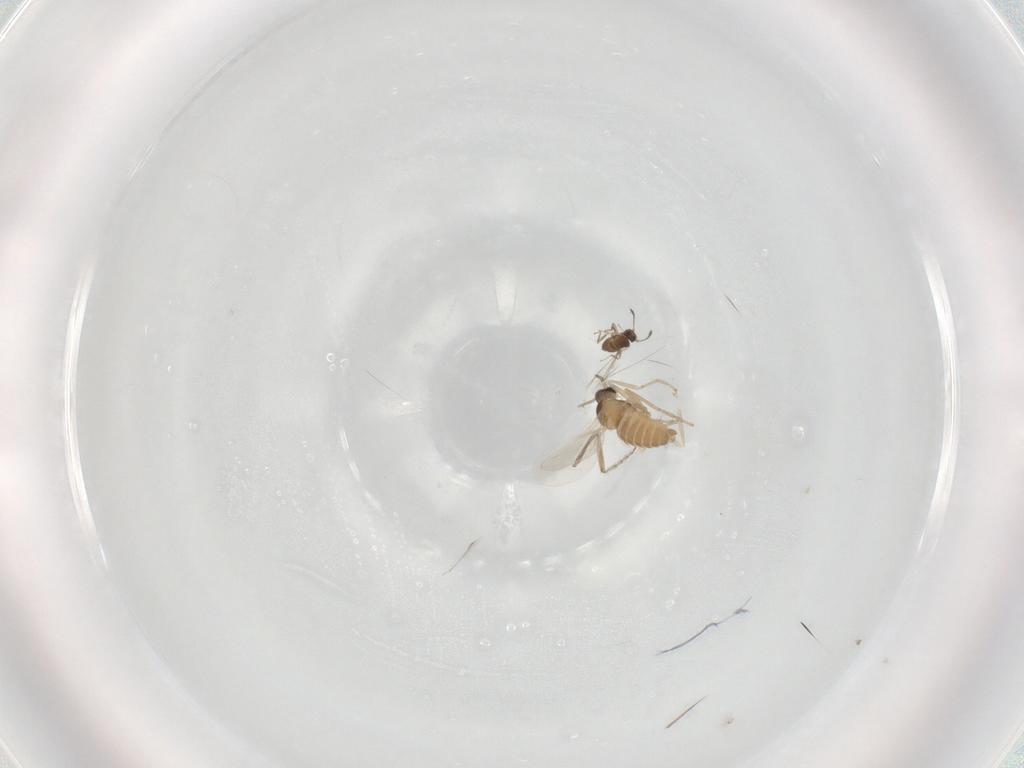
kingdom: Animalia
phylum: Arthropoda
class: Insecta
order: Diptera
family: Cecidomyiidae
